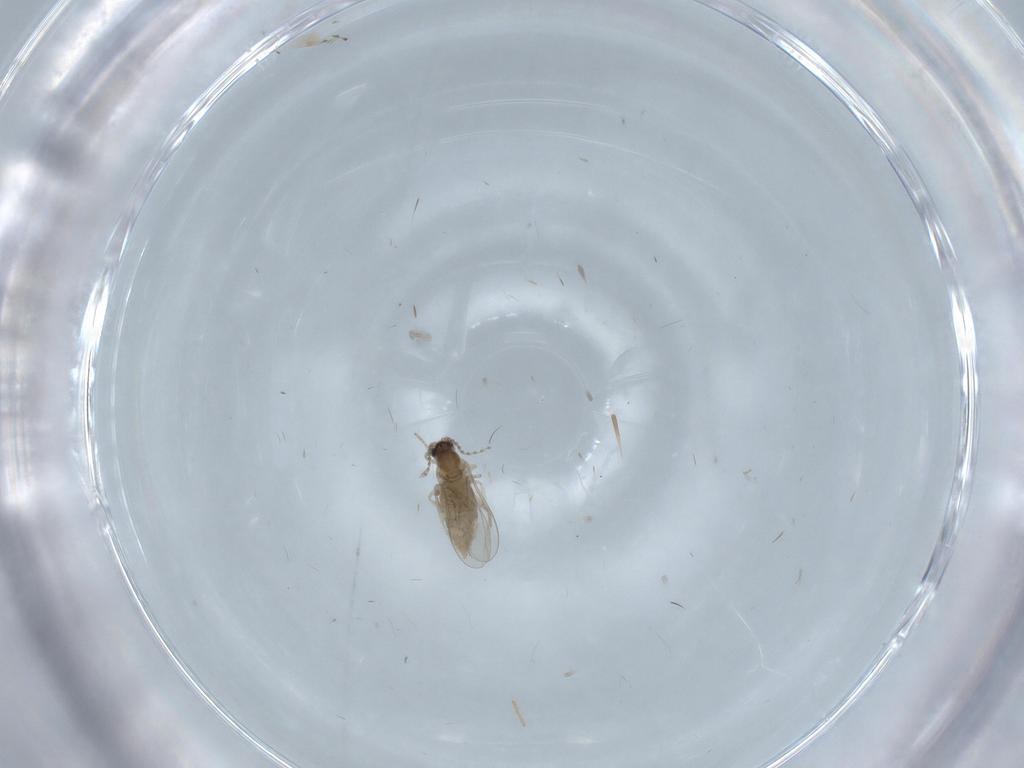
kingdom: Animalia
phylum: Arthropoda
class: Insecta
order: Diptera
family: Cecidomyiidae
